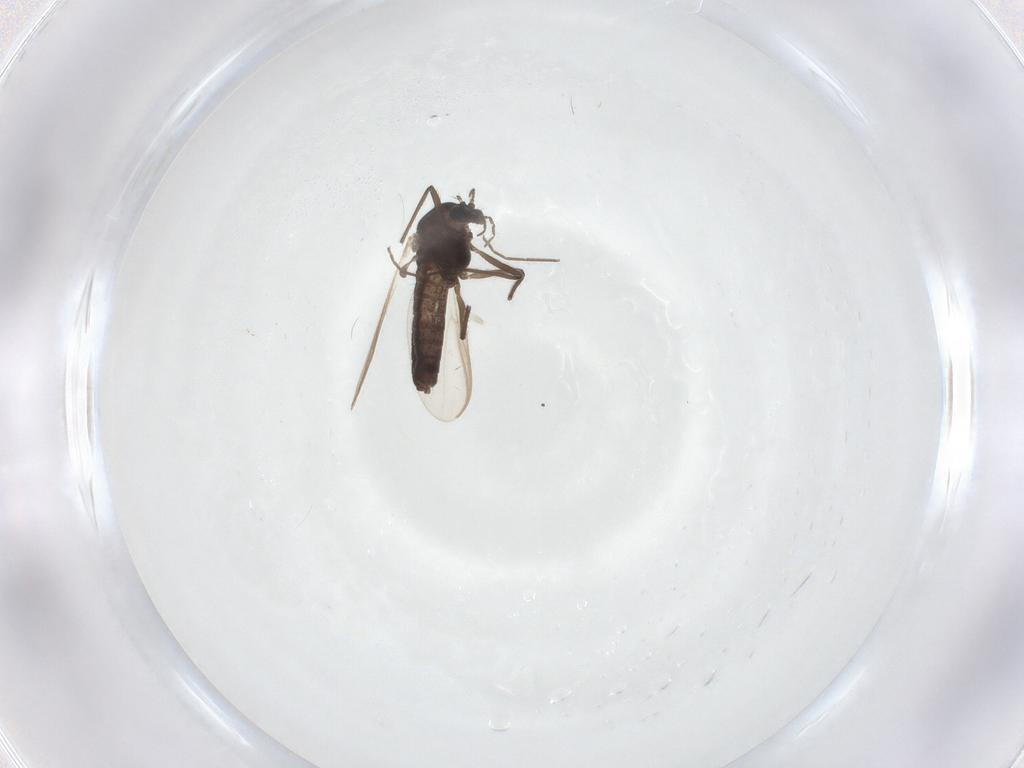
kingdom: Animalia
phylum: Arthropoda
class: Insecta
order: Diptera
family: Chironomidae
